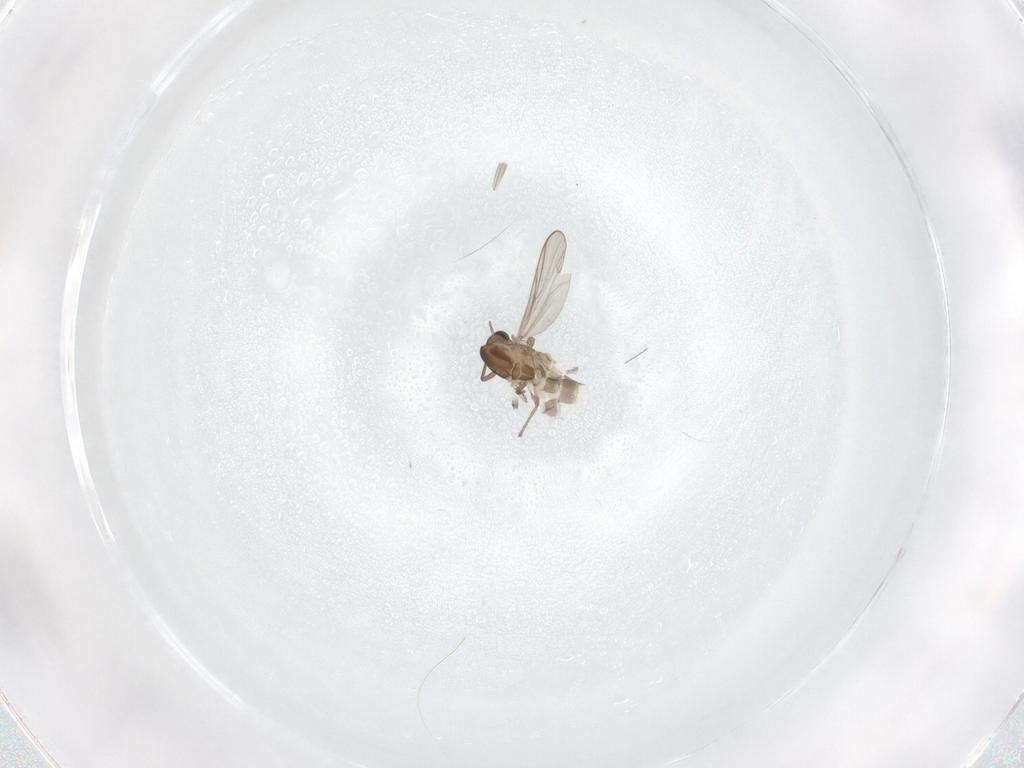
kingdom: Animalia
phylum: Arthropoda
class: Insecta
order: Diptera
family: Chironomidae
